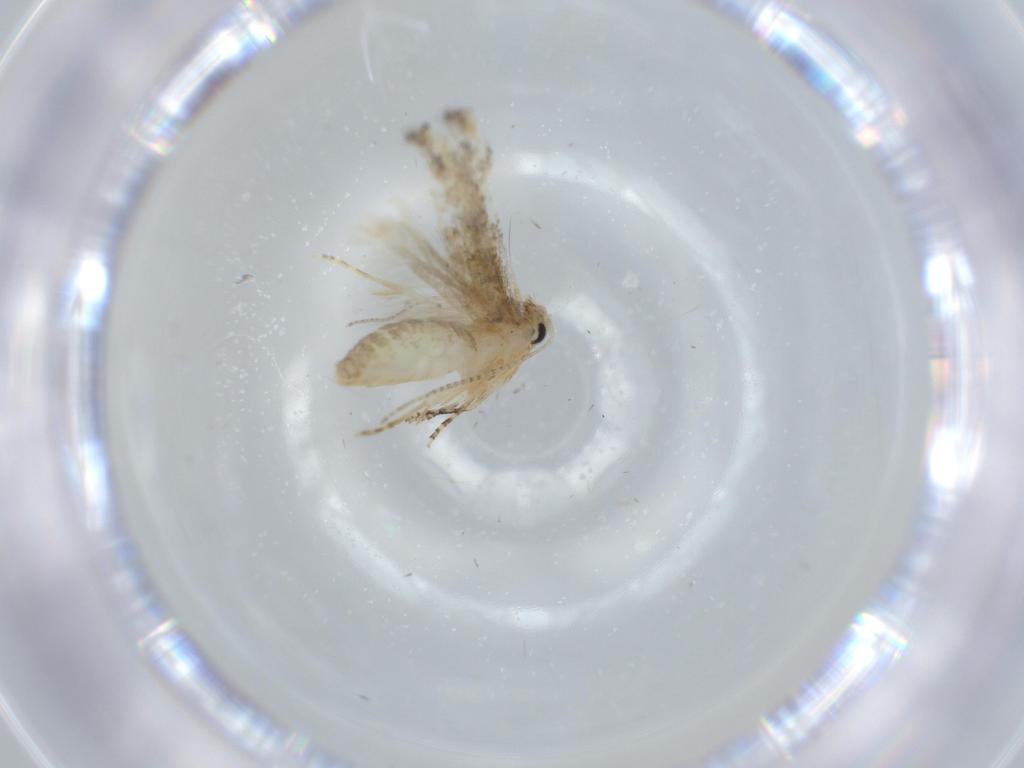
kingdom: Animalia
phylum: Arthropoda
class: Insecta
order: Lepidoptera
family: Bucculatricidae
